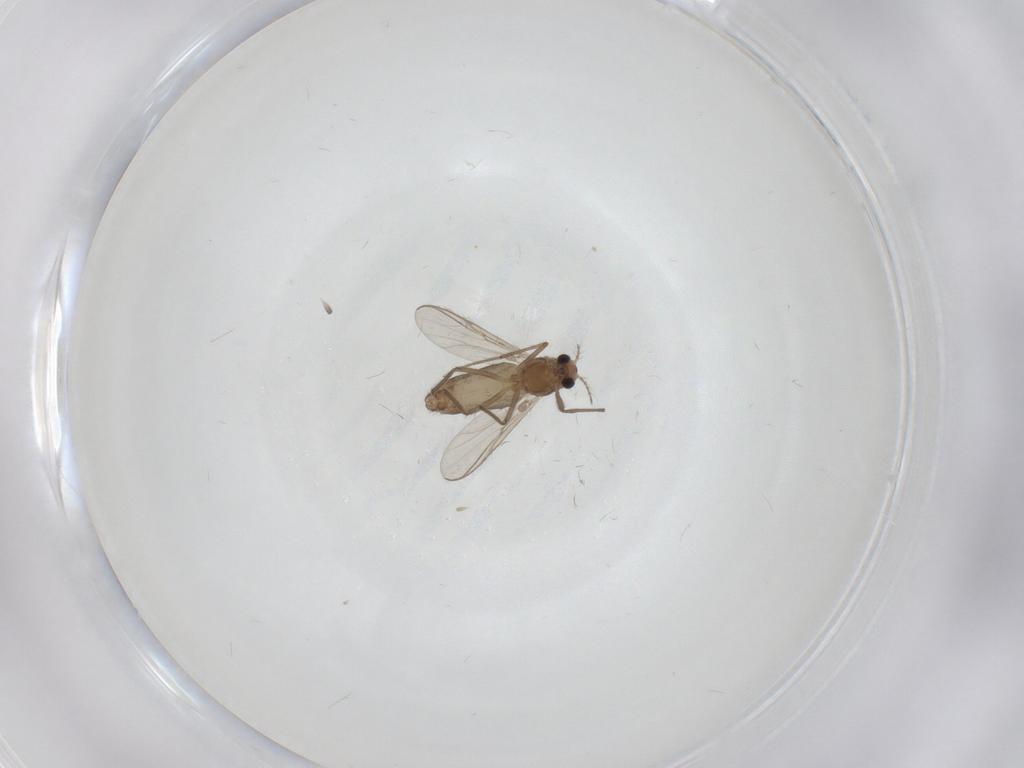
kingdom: Animalia
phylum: Arthropoda
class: Insecta
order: Diptera
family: Chironomidae
